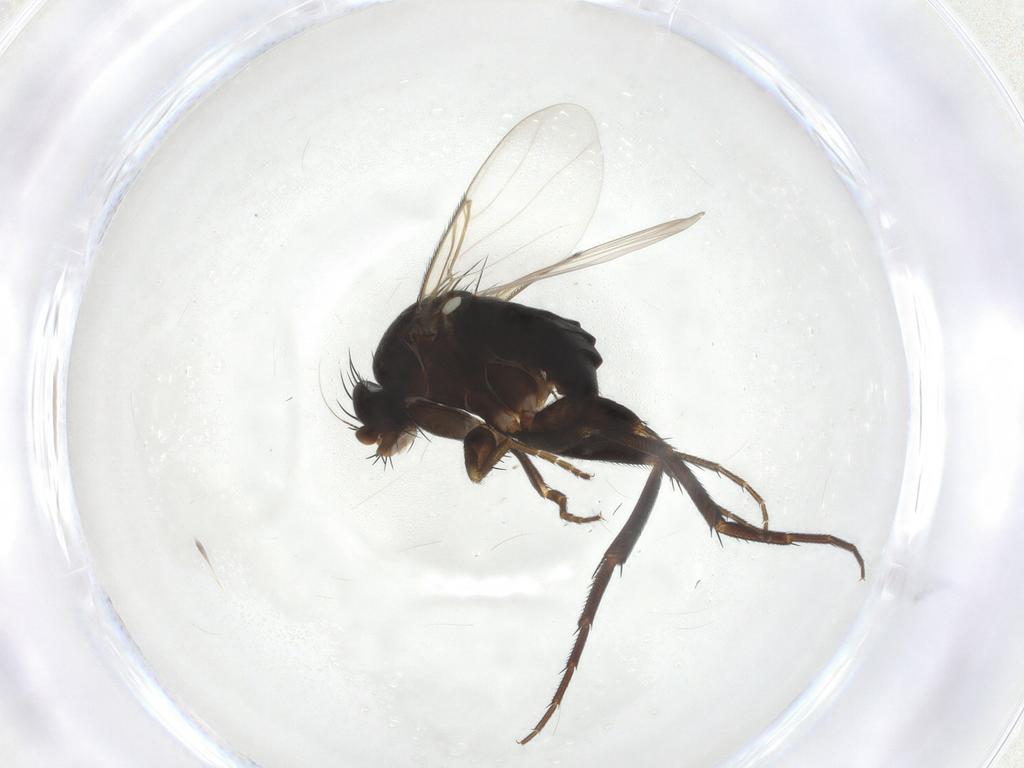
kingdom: Animalia
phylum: Arthropoda
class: Insecta
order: Diptera
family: Phoridae
